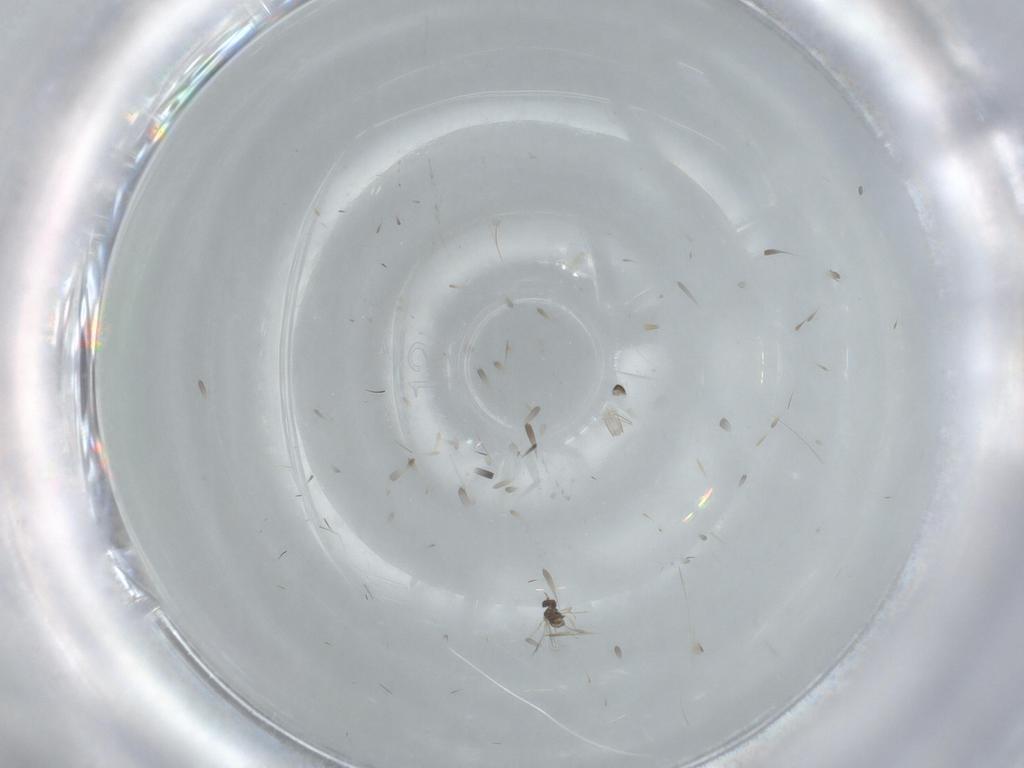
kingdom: Animalia
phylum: Arthropoda
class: Insecta
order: Hymenoptera
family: Mymaridae
